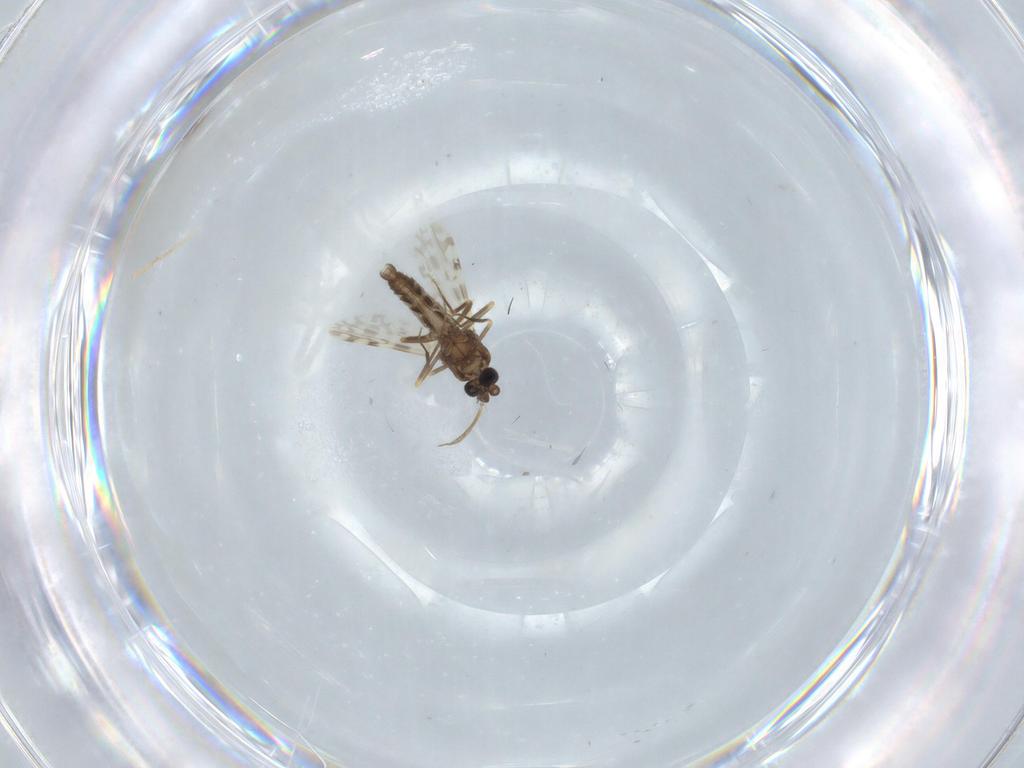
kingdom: Animalia
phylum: Arthropoda
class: Insecta
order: Diptera
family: Ceratopogonidae
